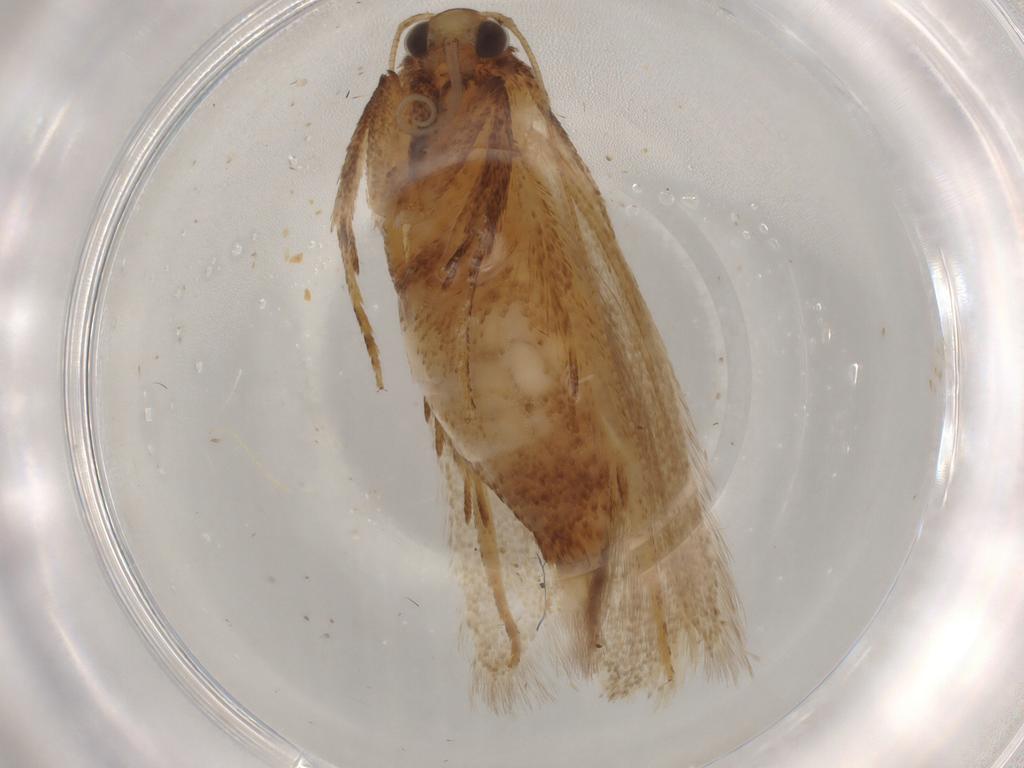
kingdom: Animalia
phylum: Arthropoda
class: Insecta
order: Lepidoptera
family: Autostichidae
